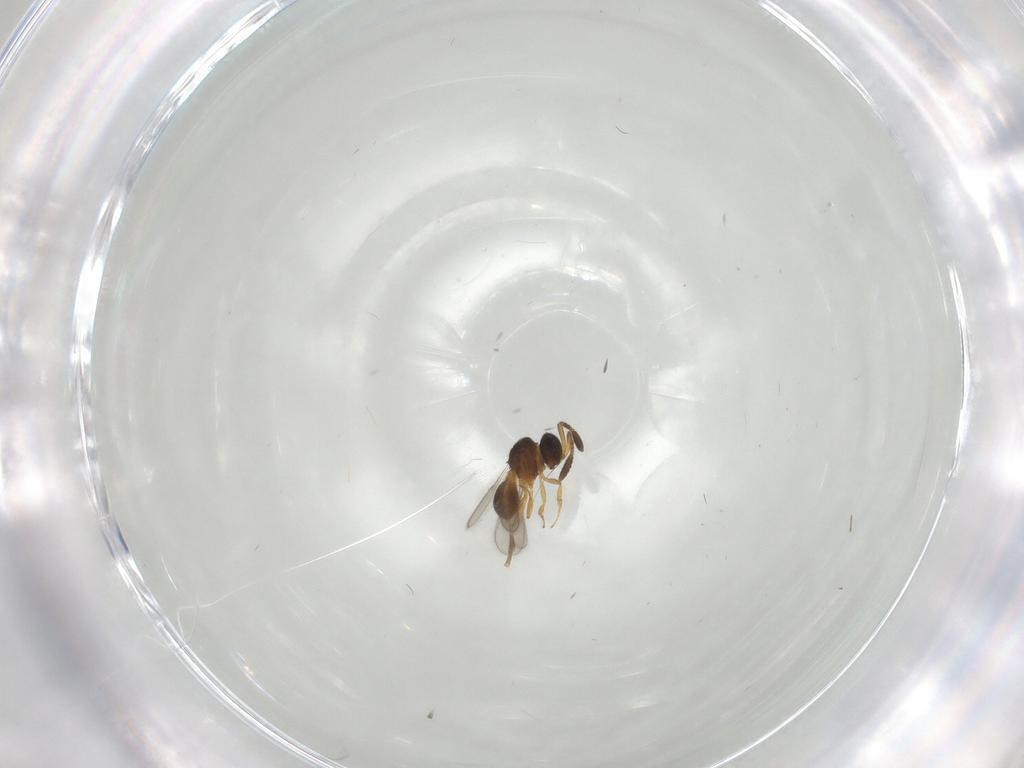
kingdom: Animalia
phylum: Arthropoda
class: Insecta
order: Hymenoptera
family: Scelionidae
